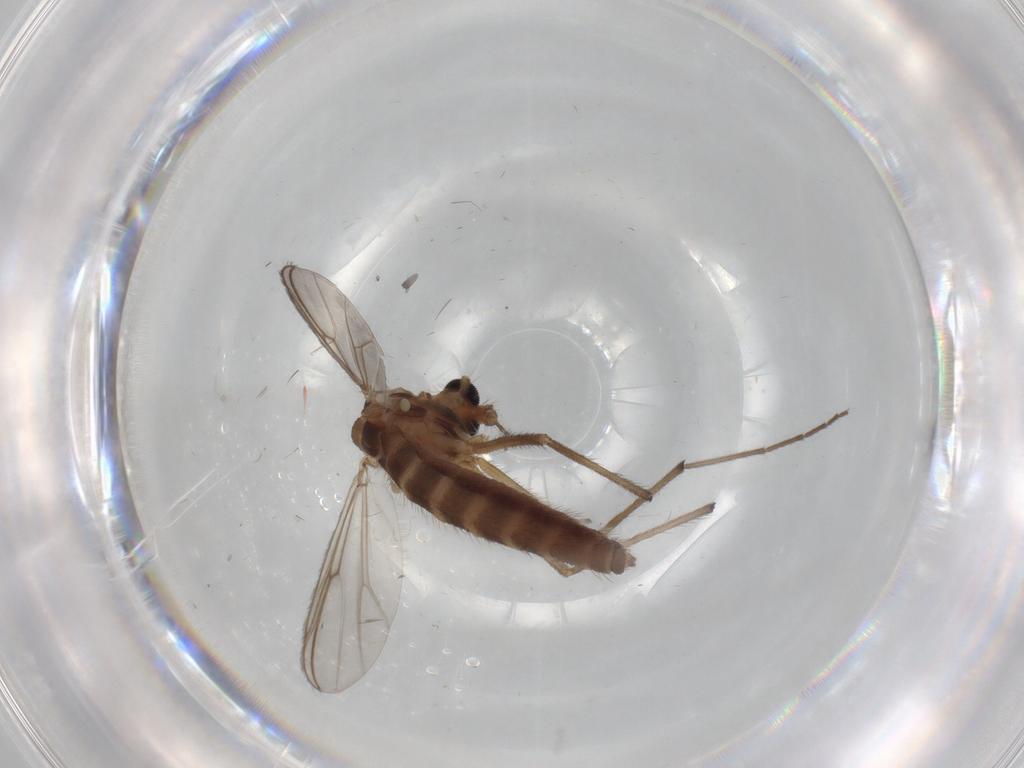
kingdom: Animalia
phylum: Arthropoda
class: Insecta
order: Diptera
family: Chironomidae
